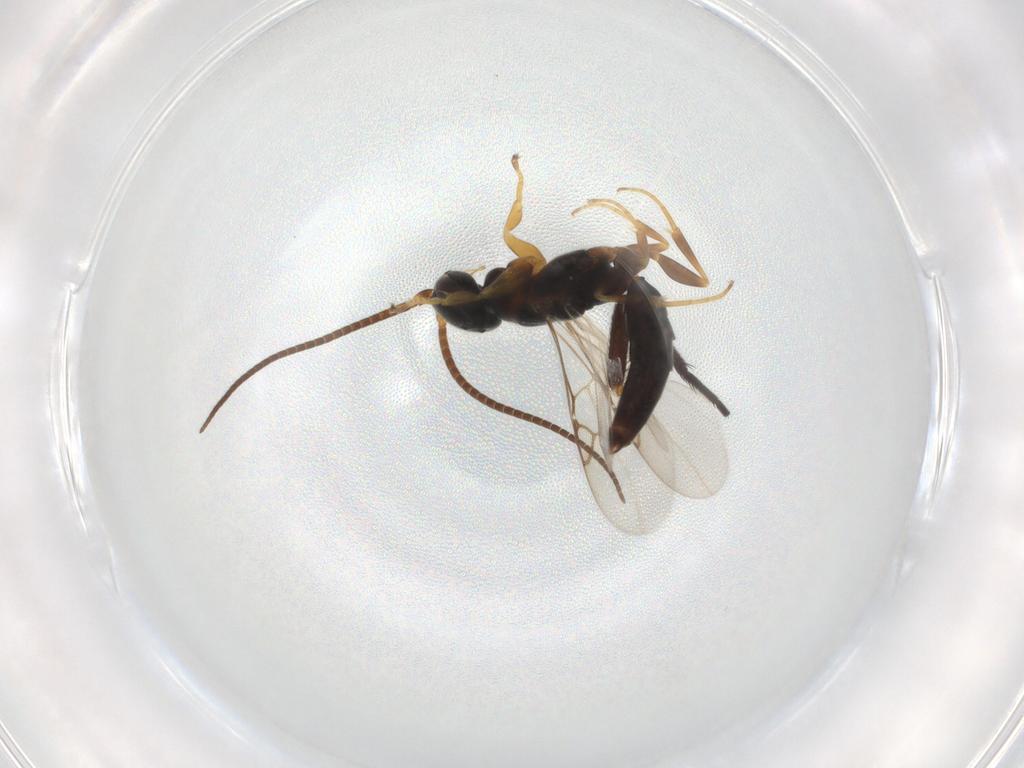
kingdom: Animalia
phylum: Arthropoda
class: Insecta
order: Hymenoptera
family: Sclerogibbidae
